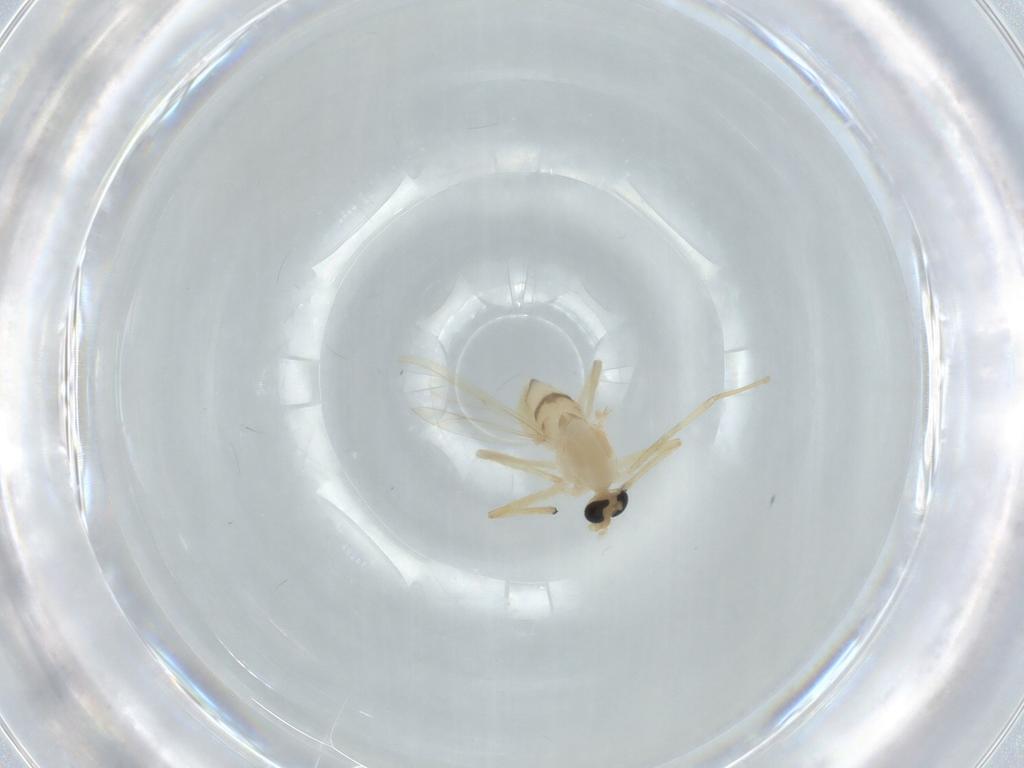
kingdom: Animalia
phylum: Arthropoda
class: Insecta
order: Diptera
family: Chironomidae
